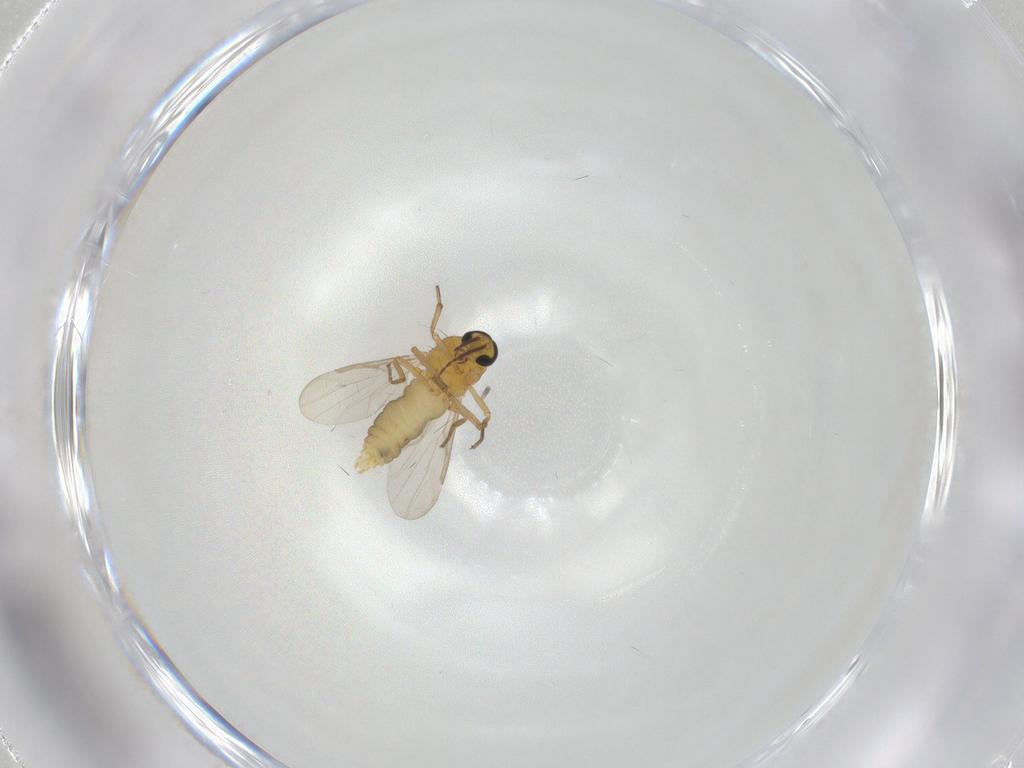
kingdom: Animalia
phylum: Arthropoda
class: Insecta
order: Diptera
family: Ceratopogonidae
